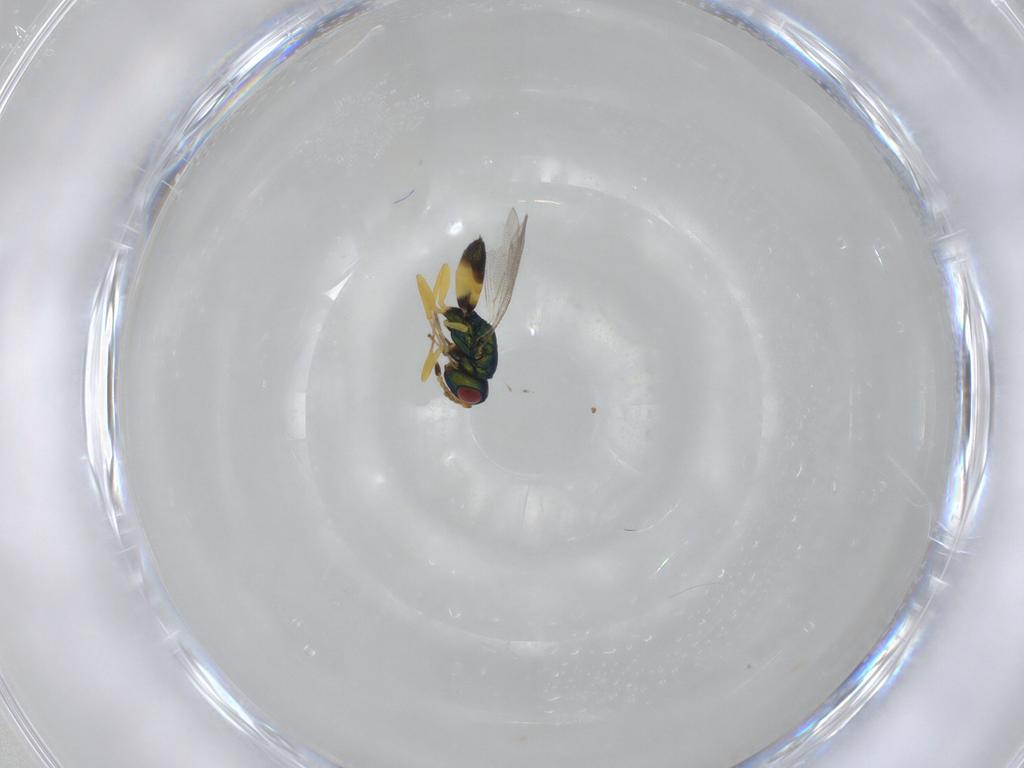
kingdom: Animalia
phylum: Arthropoda
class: Insecta
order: Hymenoptera
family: Pteromalidae
